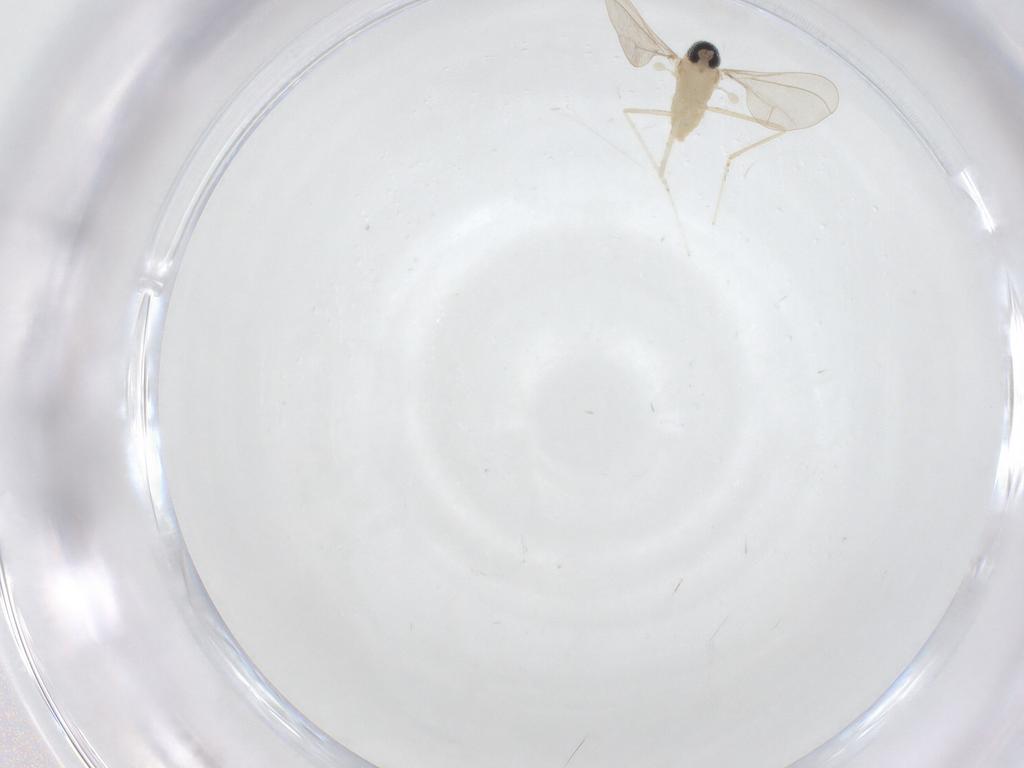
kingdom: Animalia
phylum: Arthropoda
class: Insecta
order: Diptera
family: Cecidomyiidae
